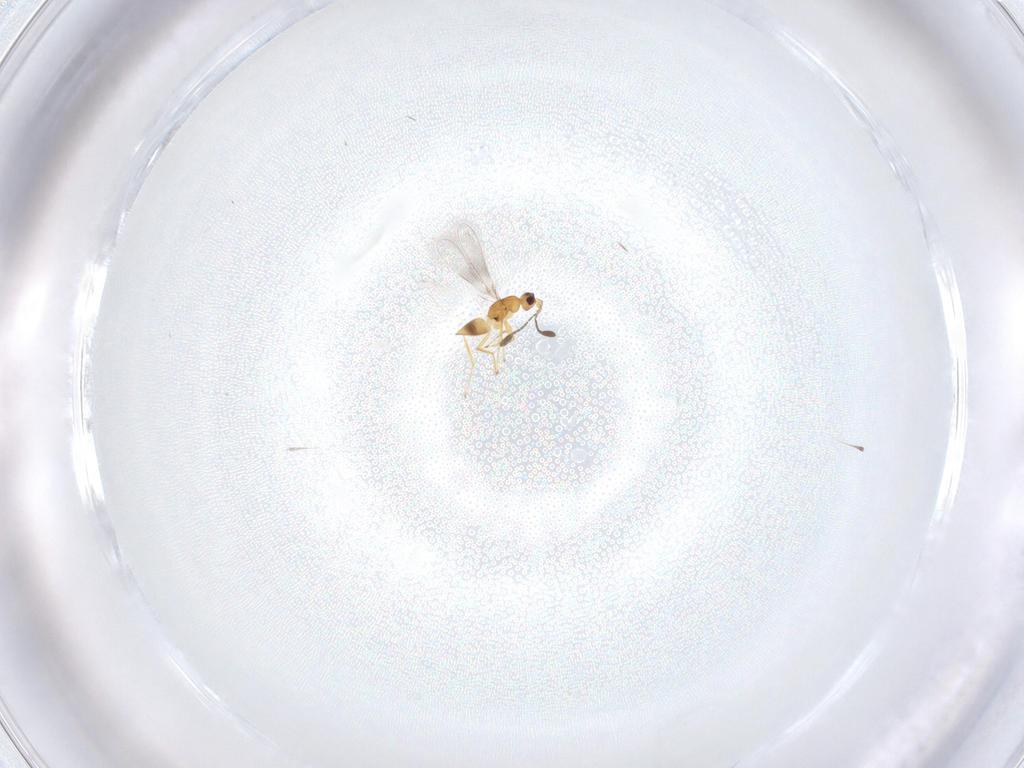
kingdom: Animalia
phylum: Arthropoda
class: Insecta
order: Hymenoptera
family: Mymaridae
